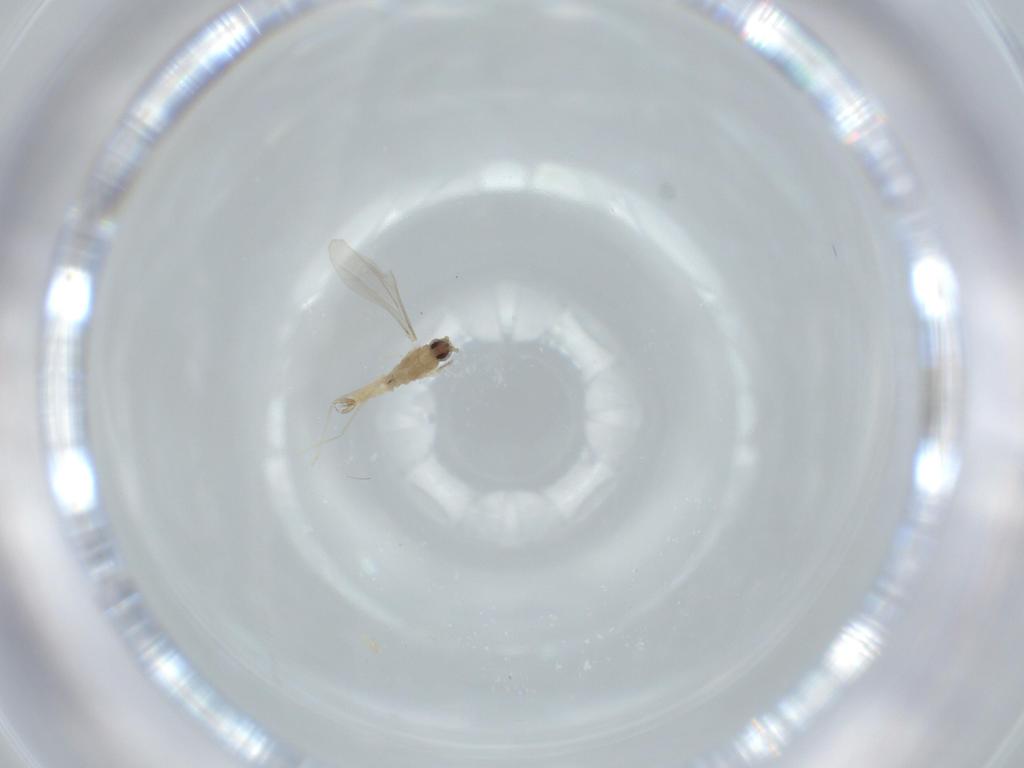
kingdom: Animalia
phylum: Arthropoda
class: Insecta
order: Diptera
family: Cecidomyiidae
